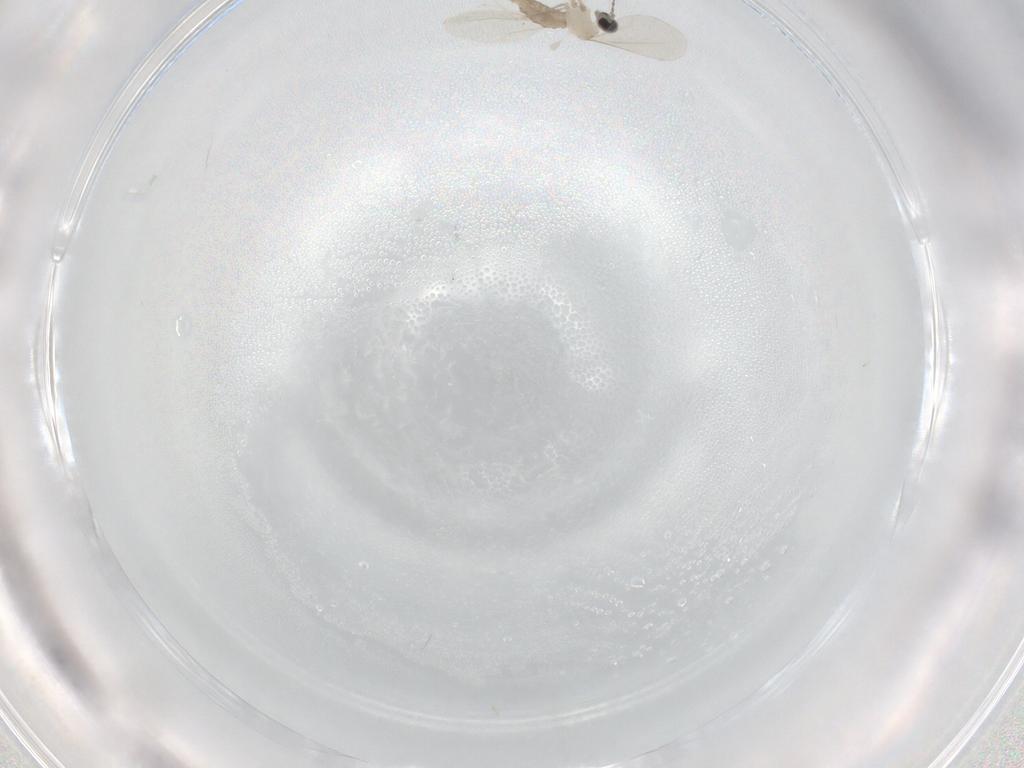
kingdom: Animalia
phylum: Arthropoda
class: Insecta
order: Diptera
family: Cecidomyiidae
